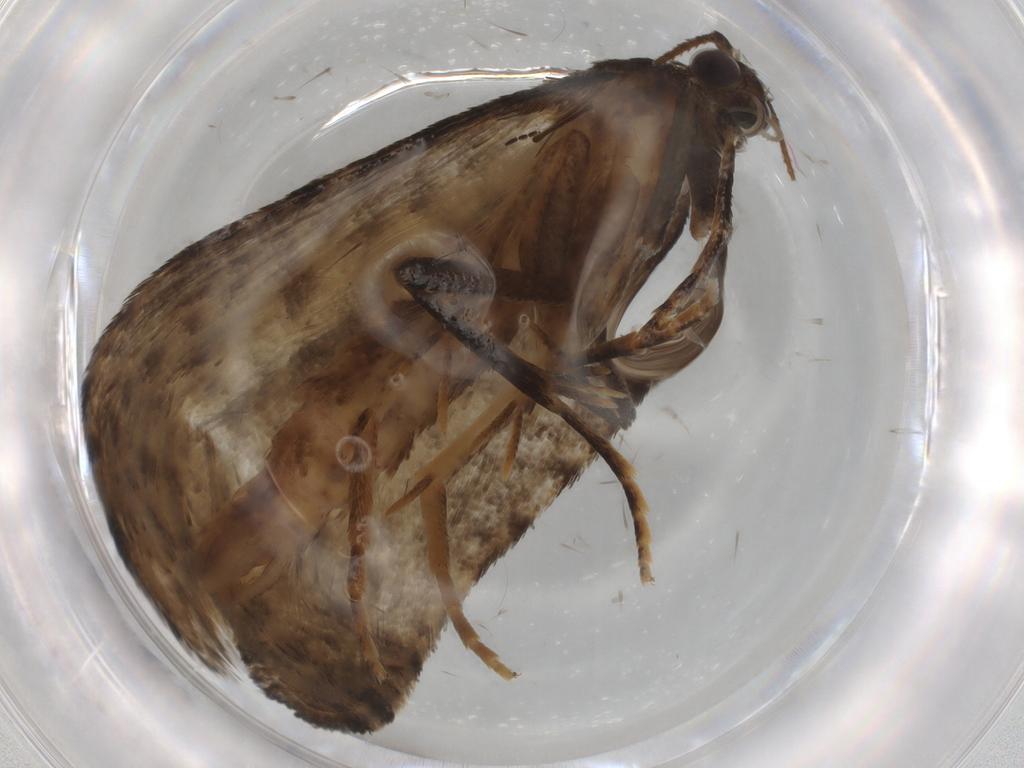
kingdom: Animalia
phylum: Arthropoda
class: Insecta
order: Lepidoptera
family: Limacodidae
